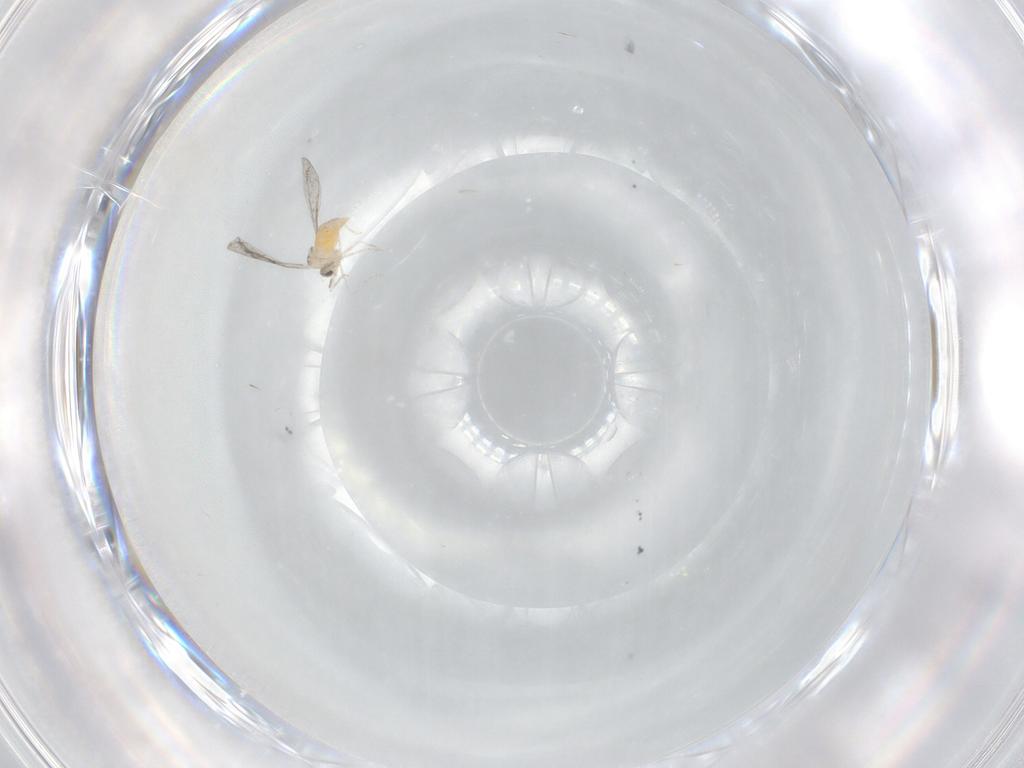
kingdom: Animalia
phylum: Arthropoda
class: Insecta
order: Diptera
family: Cecidomyiidae
